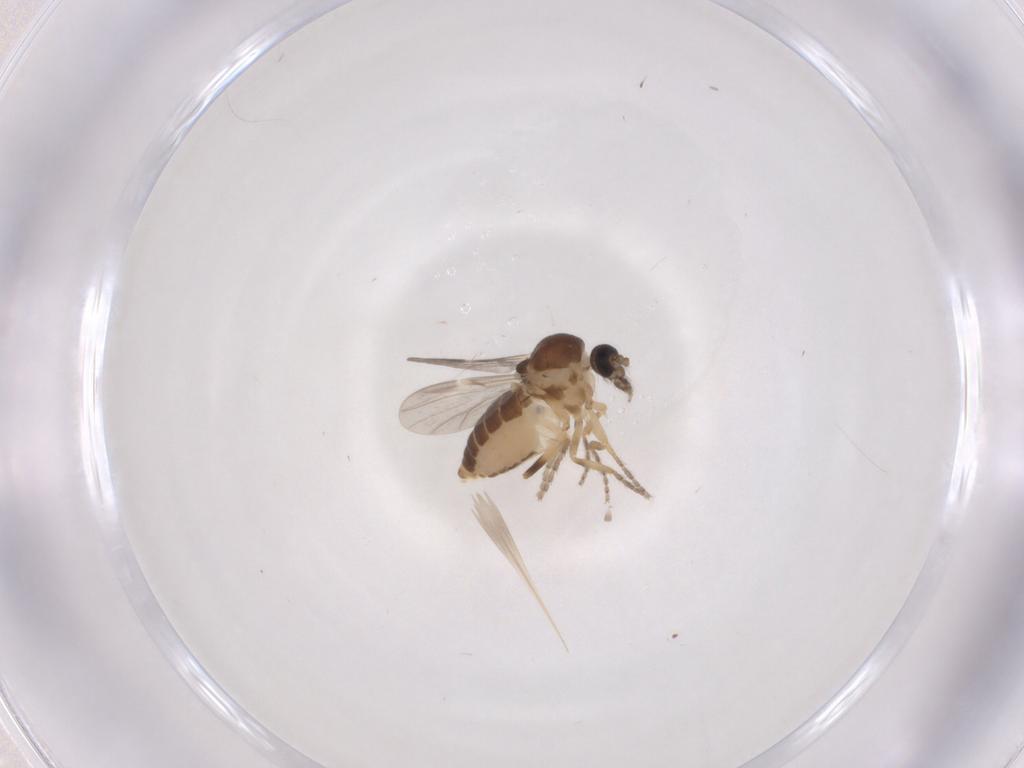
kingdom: Animalia
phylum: Arthropoda
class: Insecta
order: Diptera
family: Ceratopogonidae
